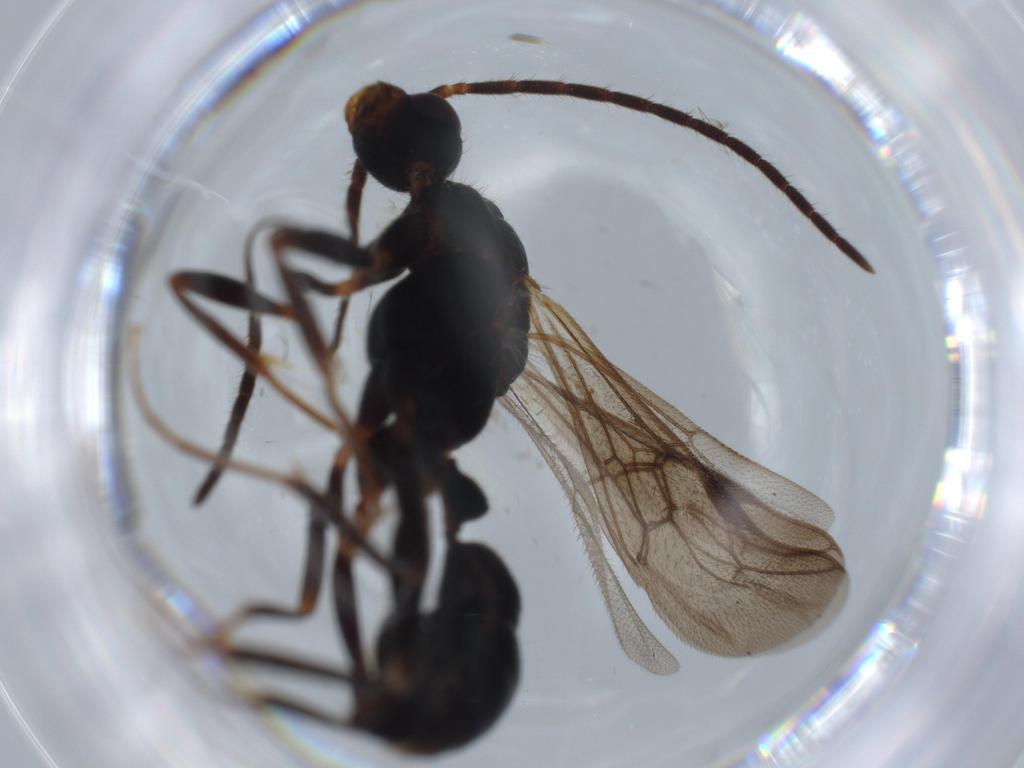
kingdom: Animalia
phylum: Arthropoda
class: Insecta
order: Hymenoptera
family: Formicidae
